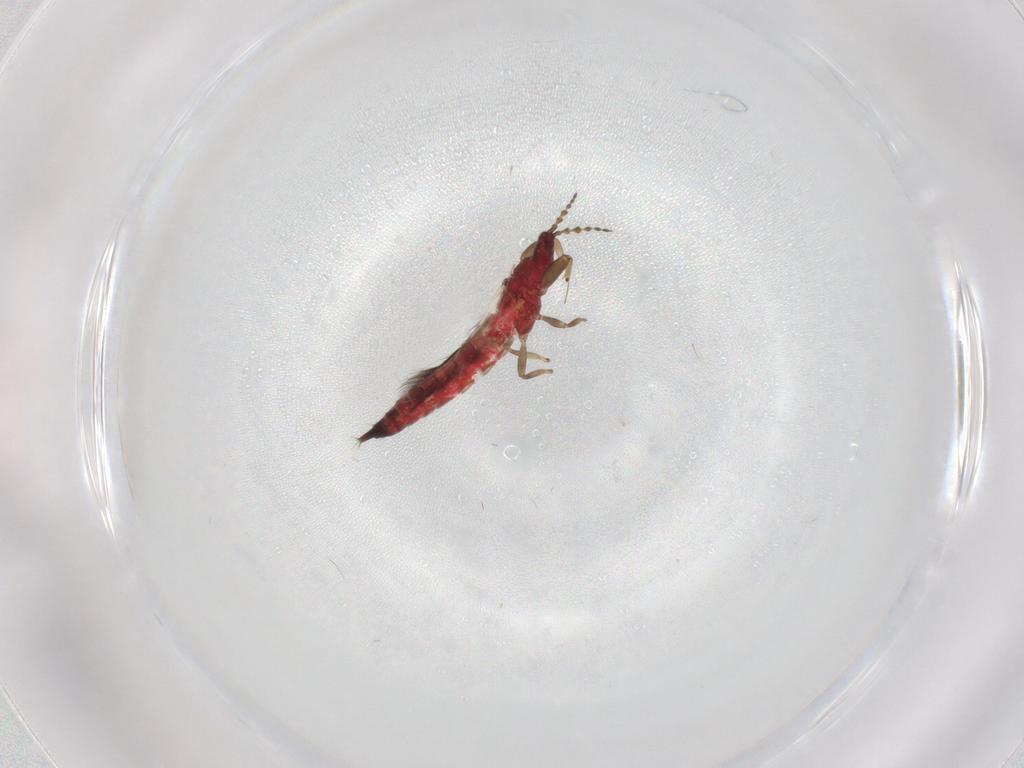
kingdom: Animalia
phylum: Arthropoda
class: Insecta
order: Thysanoptera
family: Phlaeothripidae
